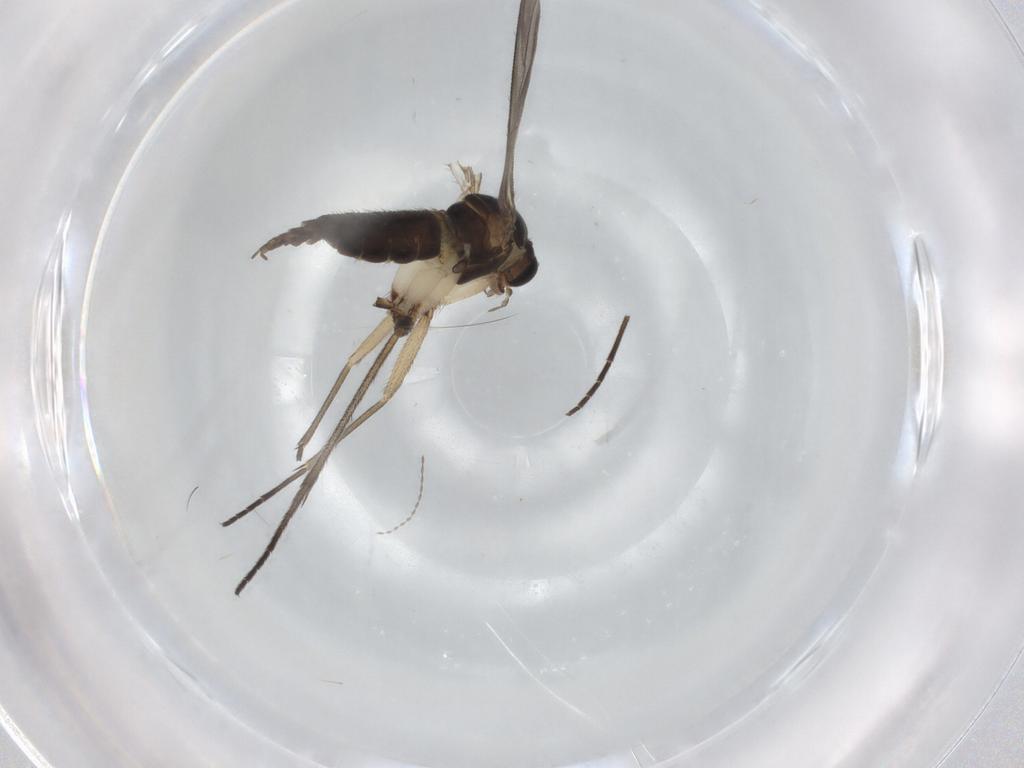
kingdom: Animalia
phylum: Arthropoda
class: Insecta
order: Diptera
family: Sciaridae
